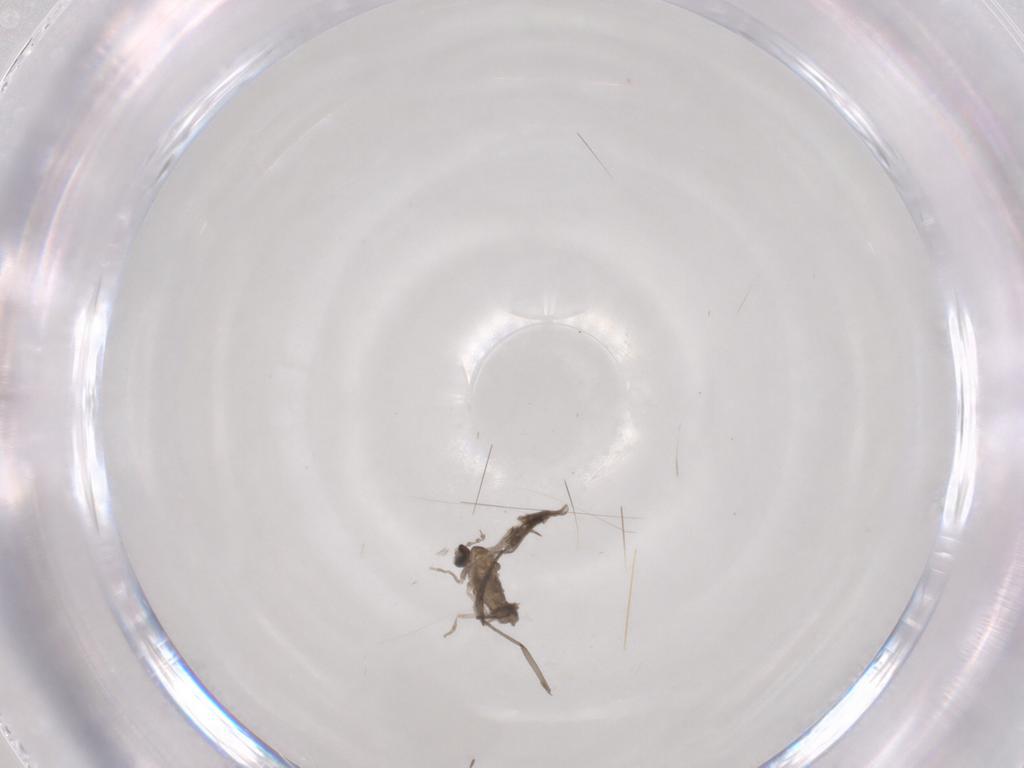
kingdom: Animalia
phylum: Arthropoda
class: Insecta
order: Diptera
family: Sciaridae
